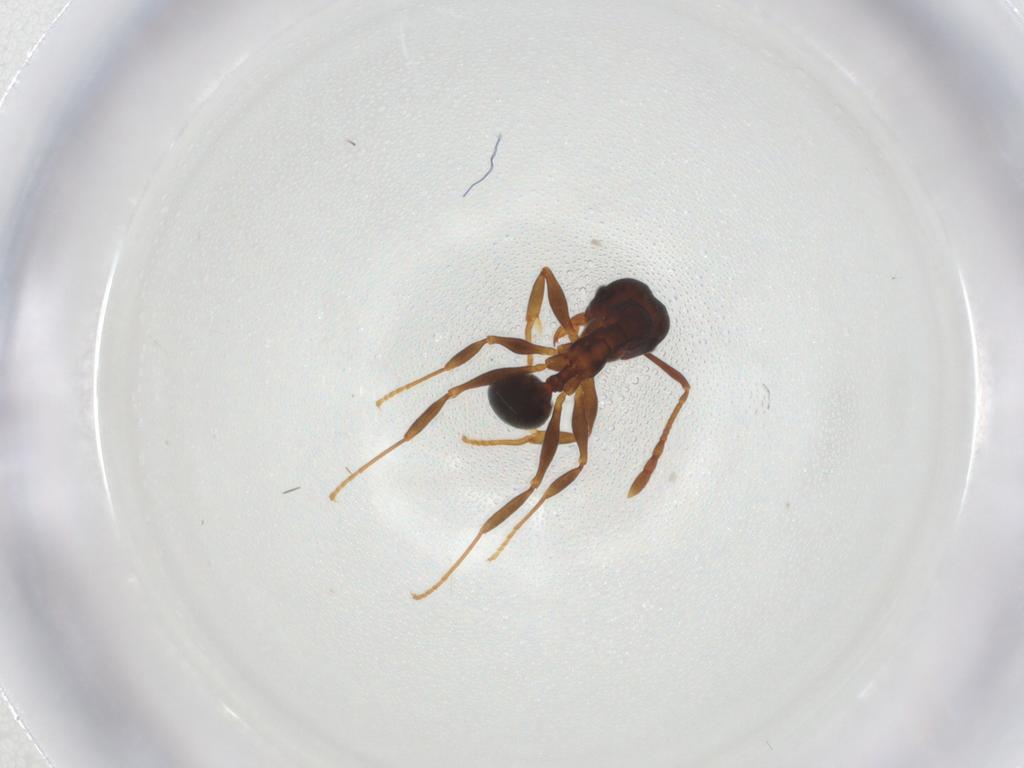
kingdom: Animalia
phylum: Arthropoda
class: Insecta
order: Hymenoptera
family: Formicidae
